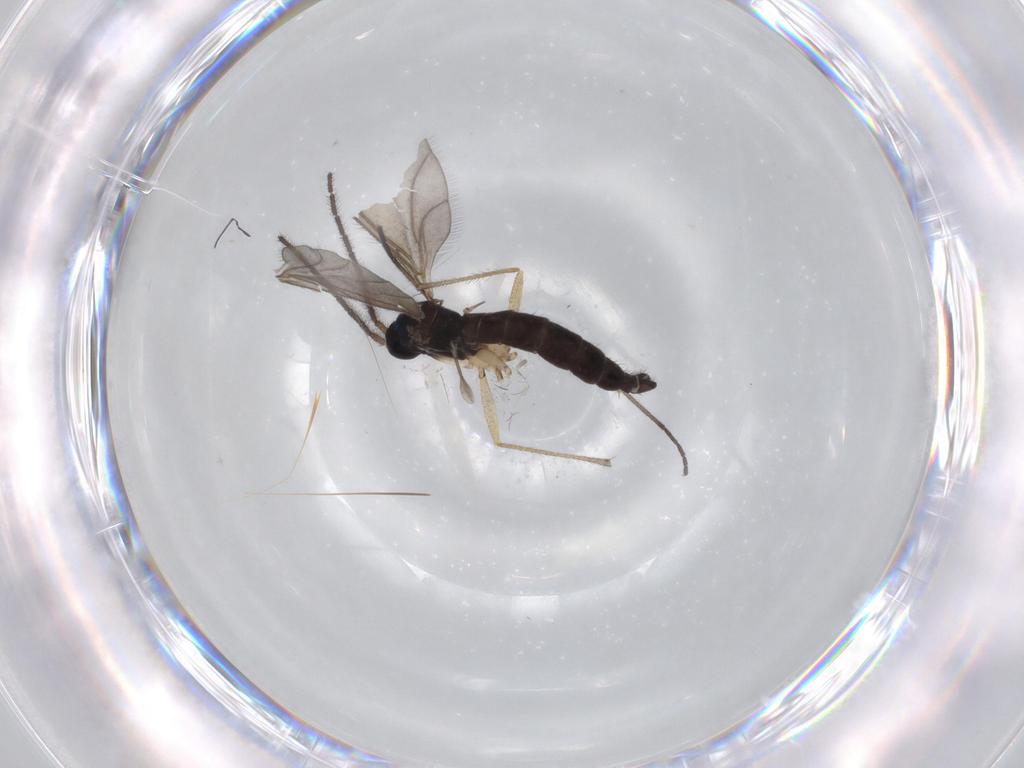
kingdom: Animalia
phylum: Arthropoda
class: Insecta
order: Diptera
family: Sciaridae
